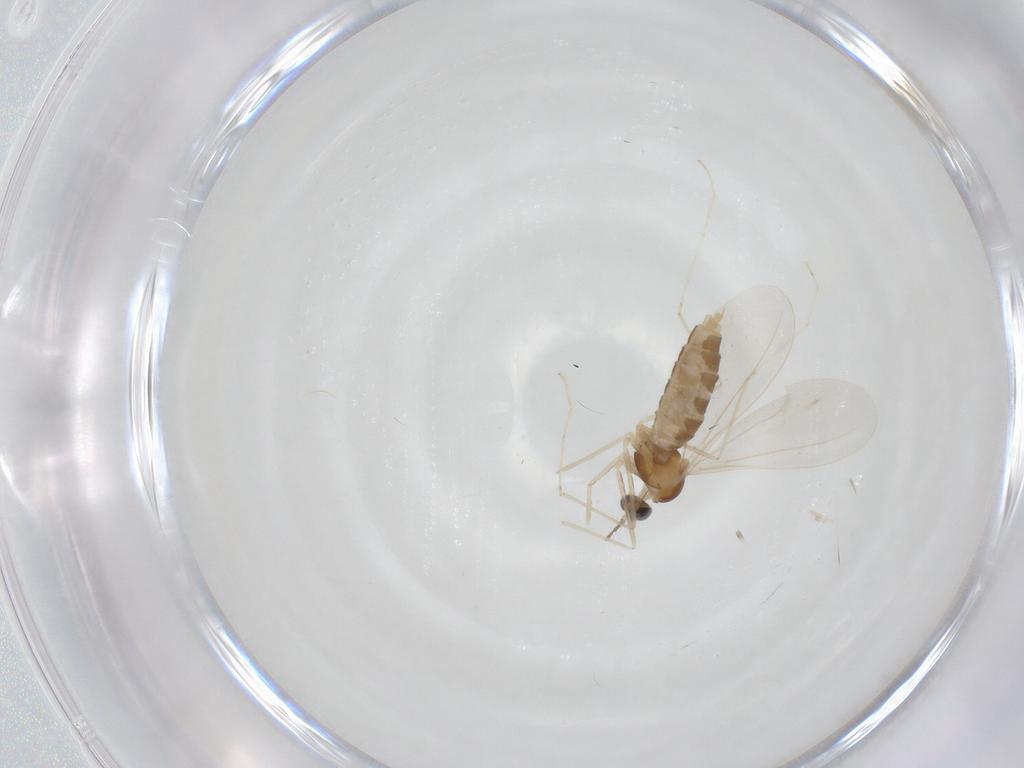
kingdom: Animalia
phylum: Arthropoda
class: Insecta
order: Diptera
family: Cecidomyiidae
